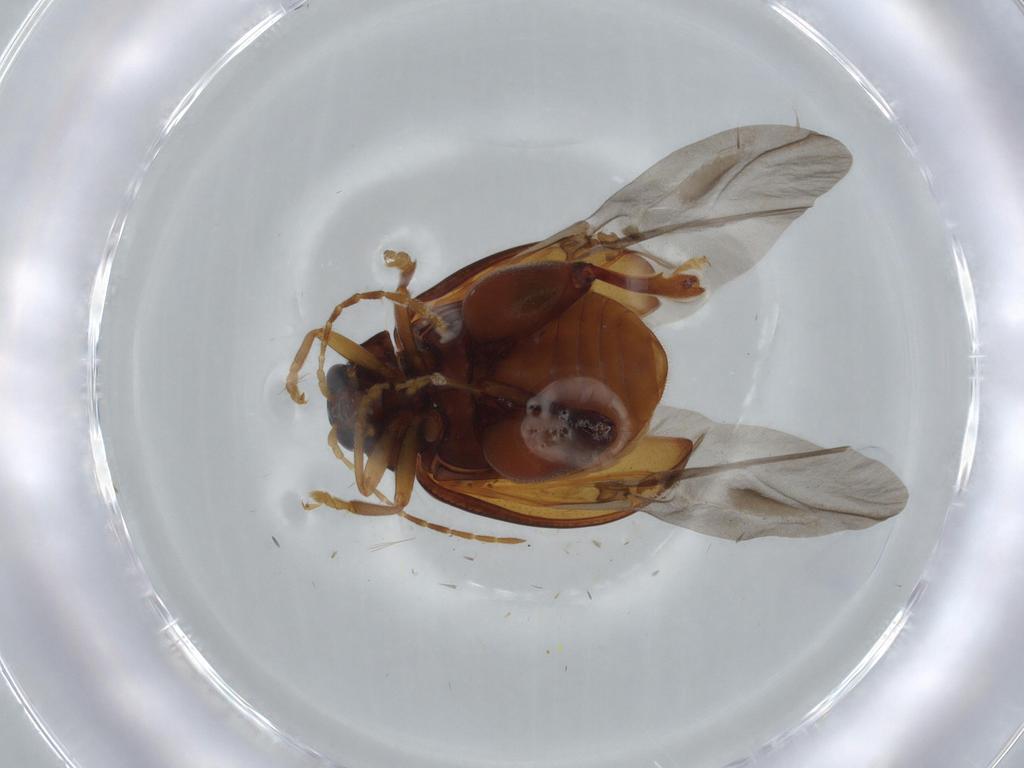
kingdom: Animalia
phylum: Arthropoda
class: Insecta
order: Coleoptera
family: Chrysomelidae
